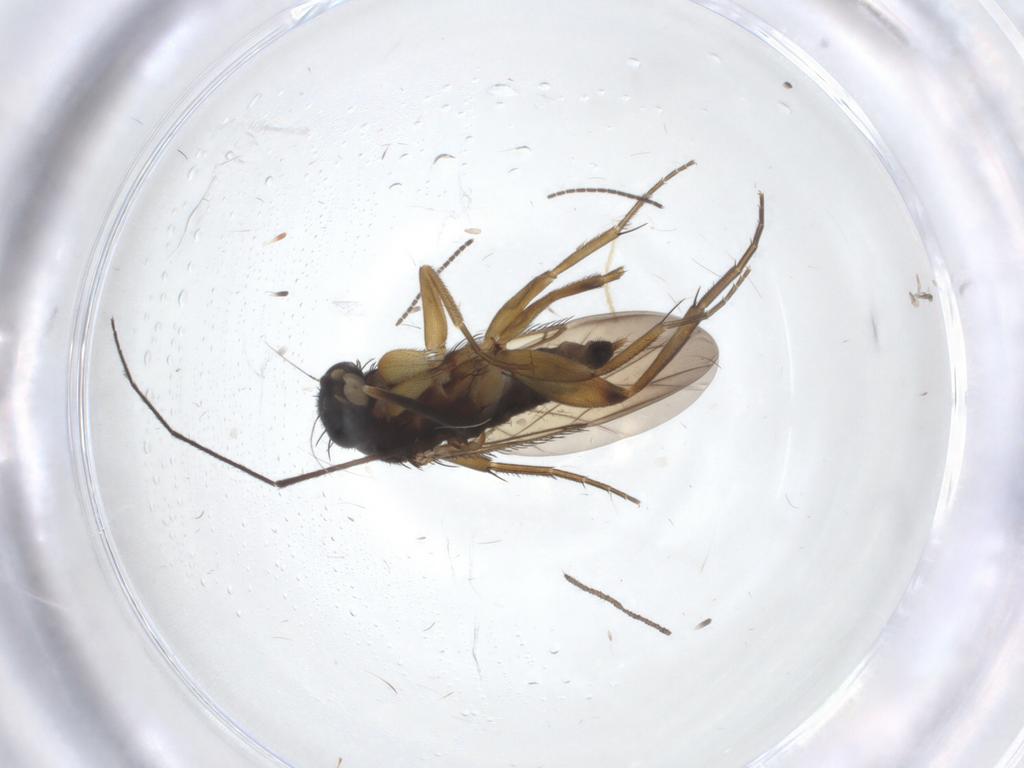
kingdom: Animalia
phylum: Arthropoda
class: Insecta
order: Diptera
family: Phoridae
